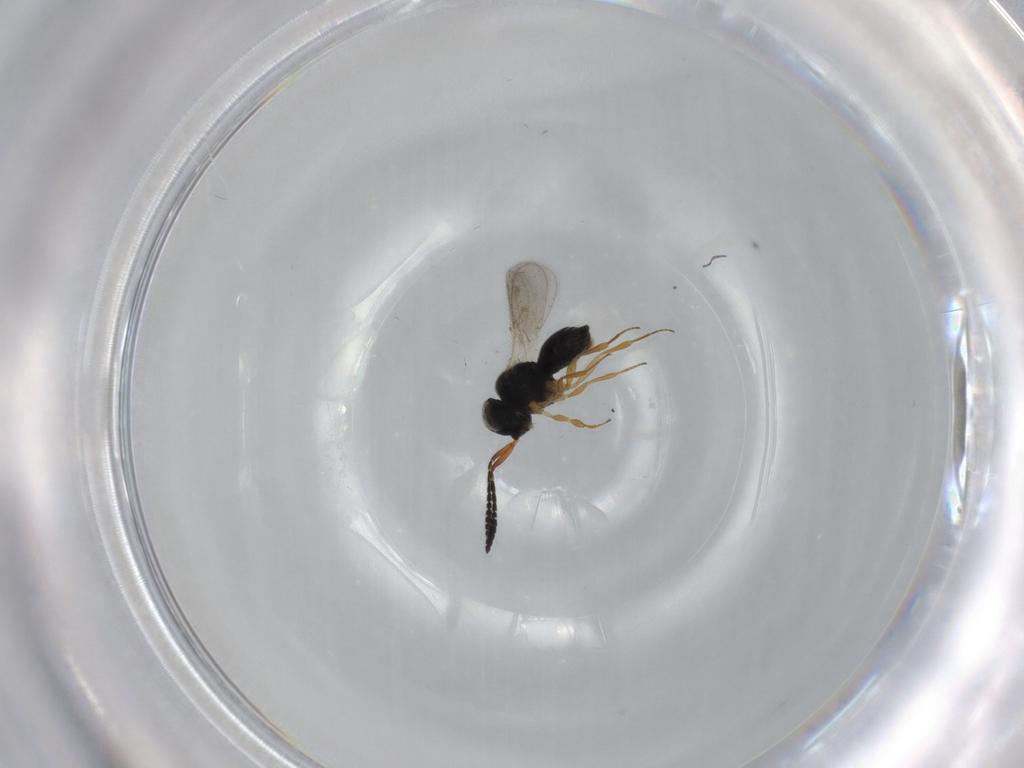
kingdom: Animalia
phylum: Arthropoda
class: Insecta
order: Hymenoptera
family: Scelionidae
